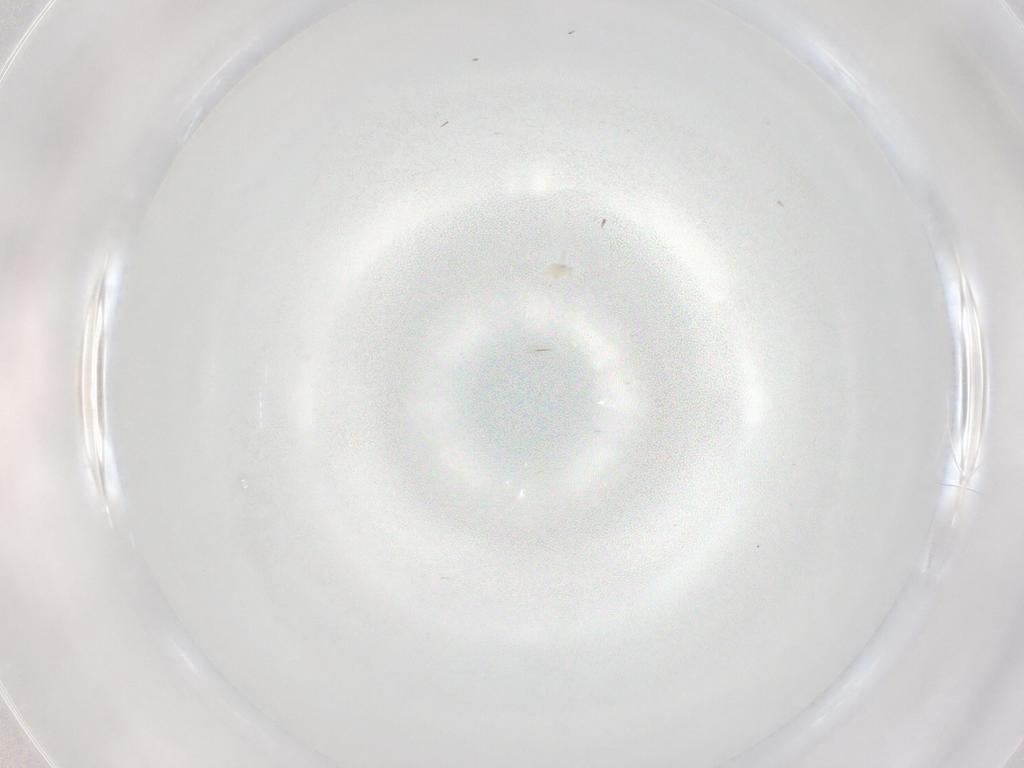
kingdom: Animalia
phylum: Arthropoda
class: Insecta
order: Diptera
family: Cecidomyiidae
